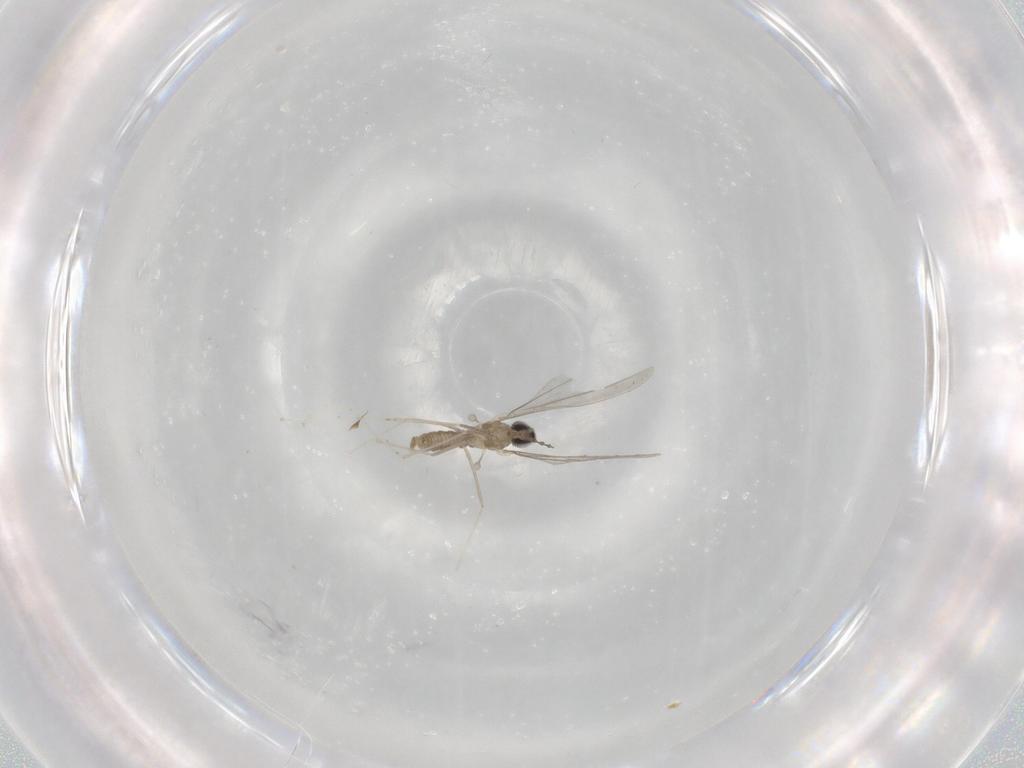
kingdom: Animalia
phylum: Arthropoda
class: Insecta
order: Diptera
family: Cecidomyiidae
